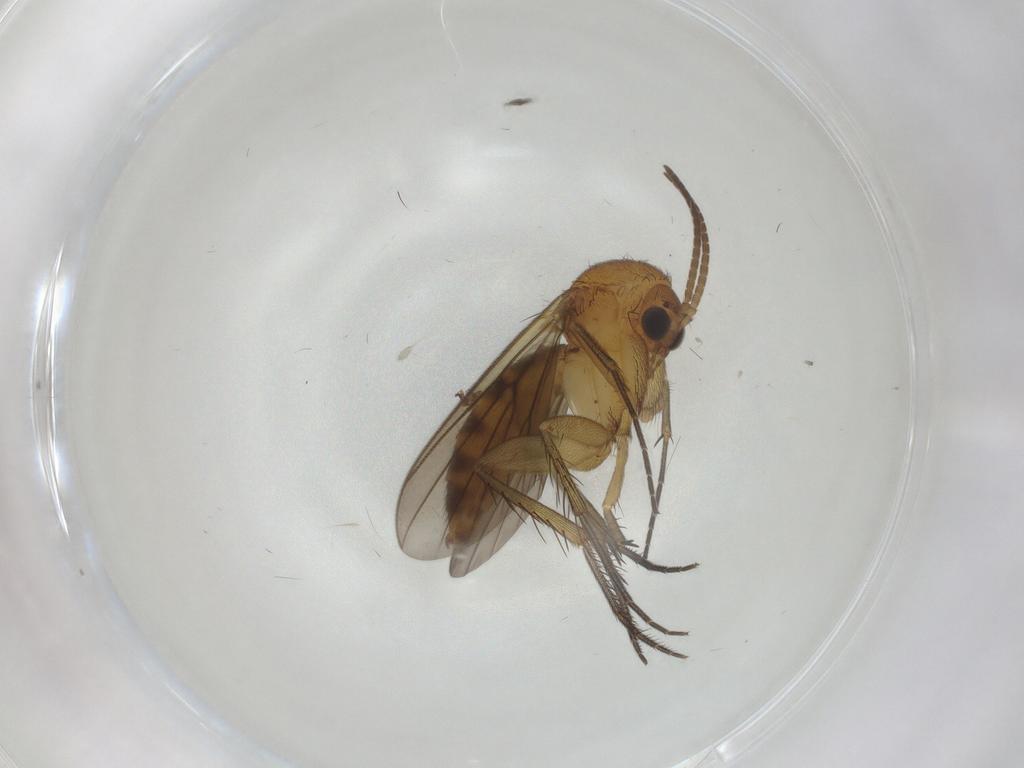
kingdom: Animalia
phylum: Arthropoda
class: Insecta
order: Diptera
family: Mycetophilidae
